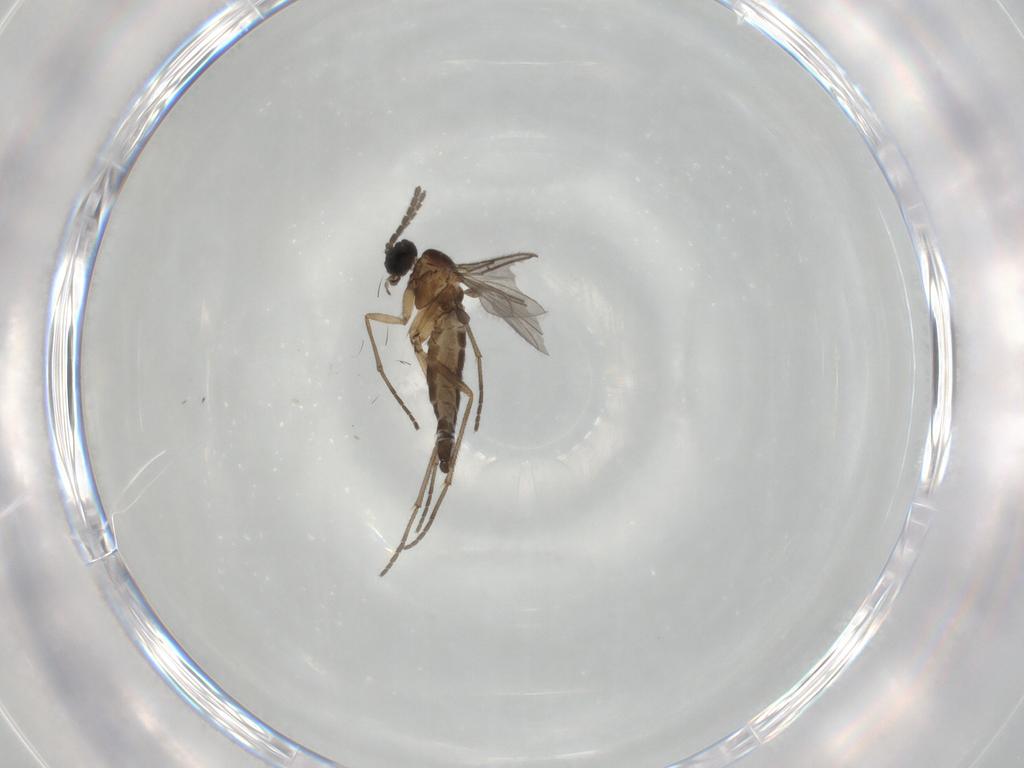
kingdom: Animalia
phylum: Arthropoda
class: Insecta
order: Diptera
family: Sciaridae
